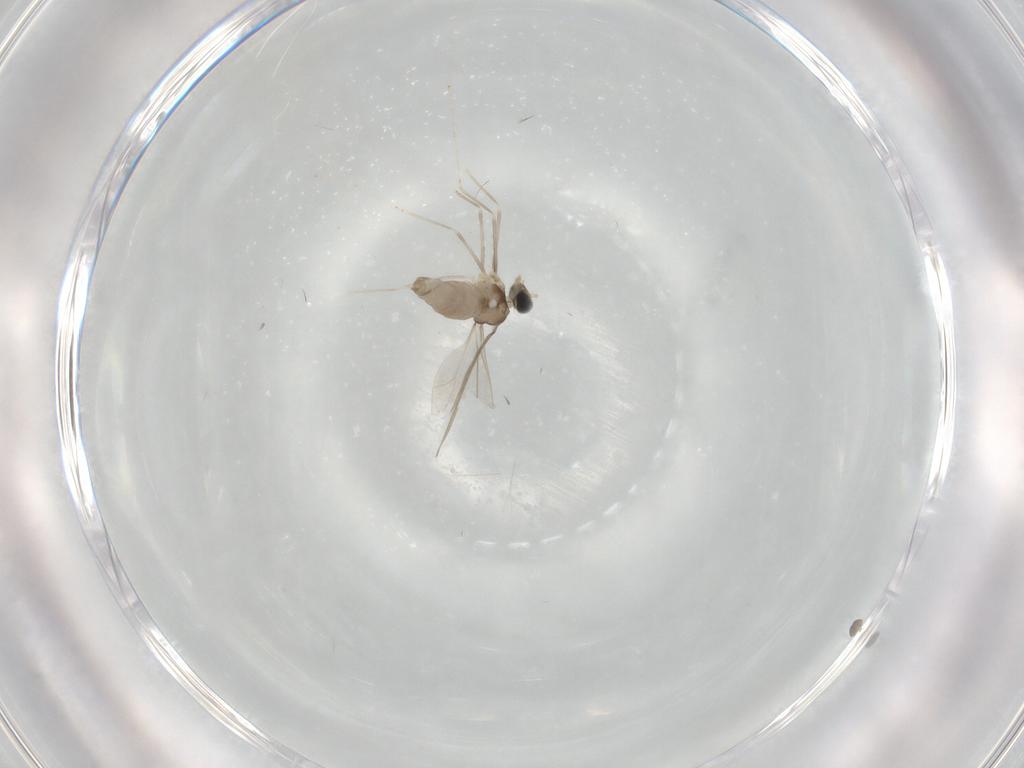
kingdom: Animalia
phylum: Arthropoda
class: Insecta
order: Diptera
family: Cecidomyiidae
